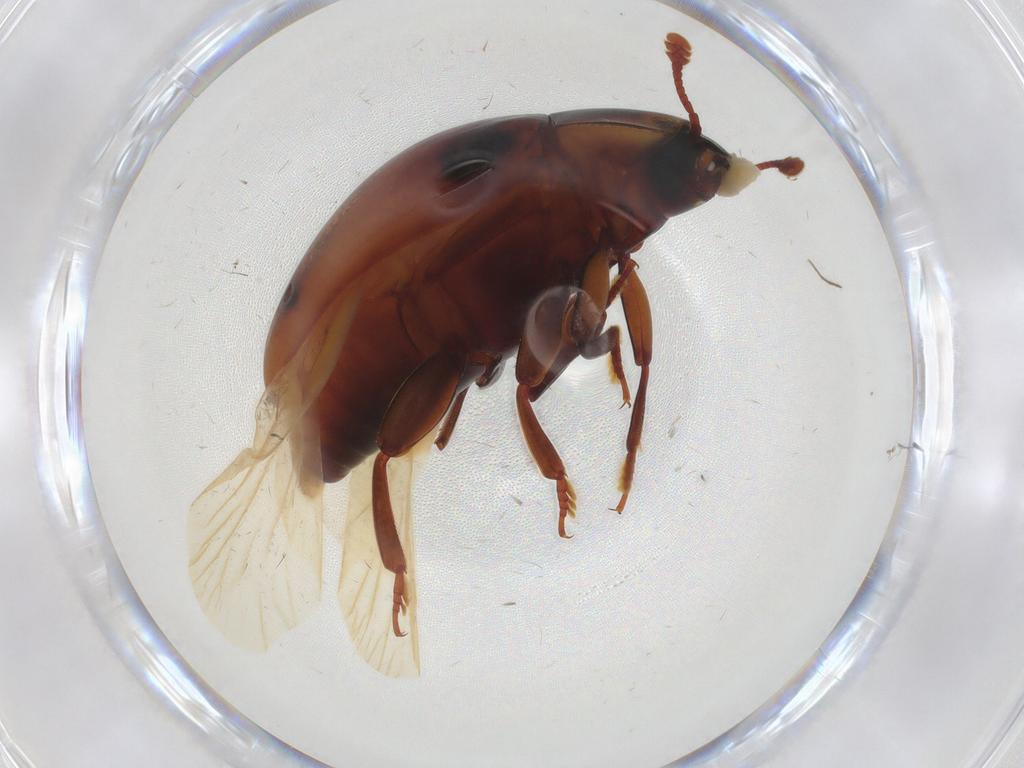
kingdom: Animalia
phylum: Arthropoda
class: Insecta
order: Coleoptera
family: Zopheridae
